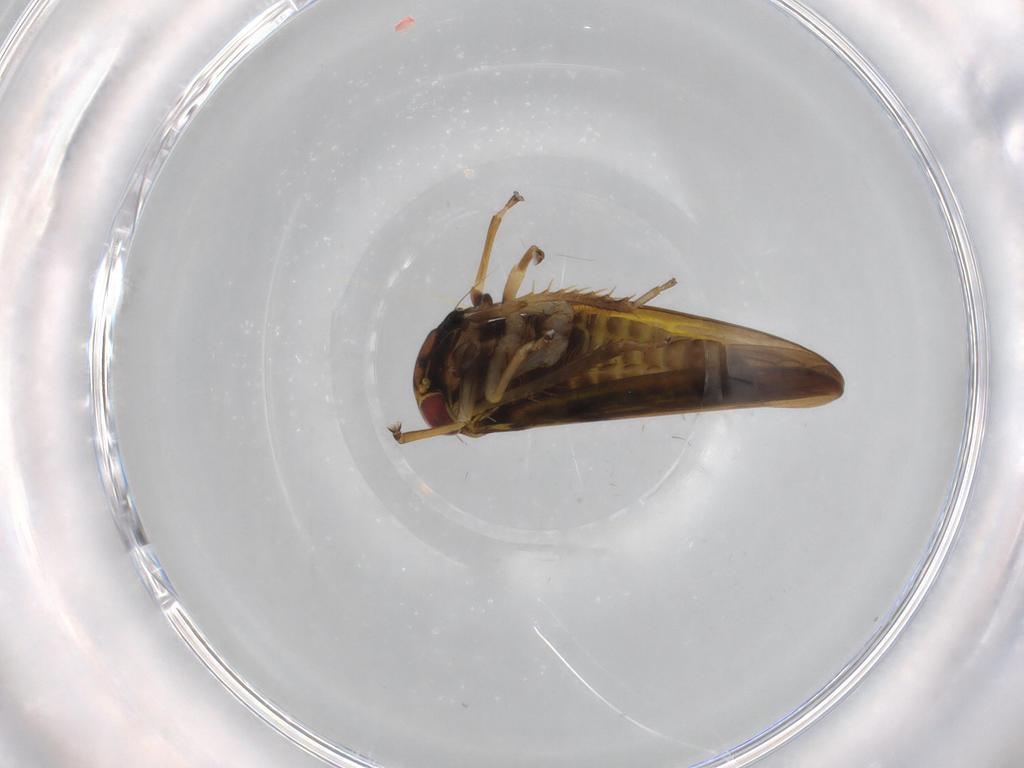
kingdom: Animalia
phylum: Arthropoda
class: Insecta
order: Hemiptera
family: Cicadellidae
